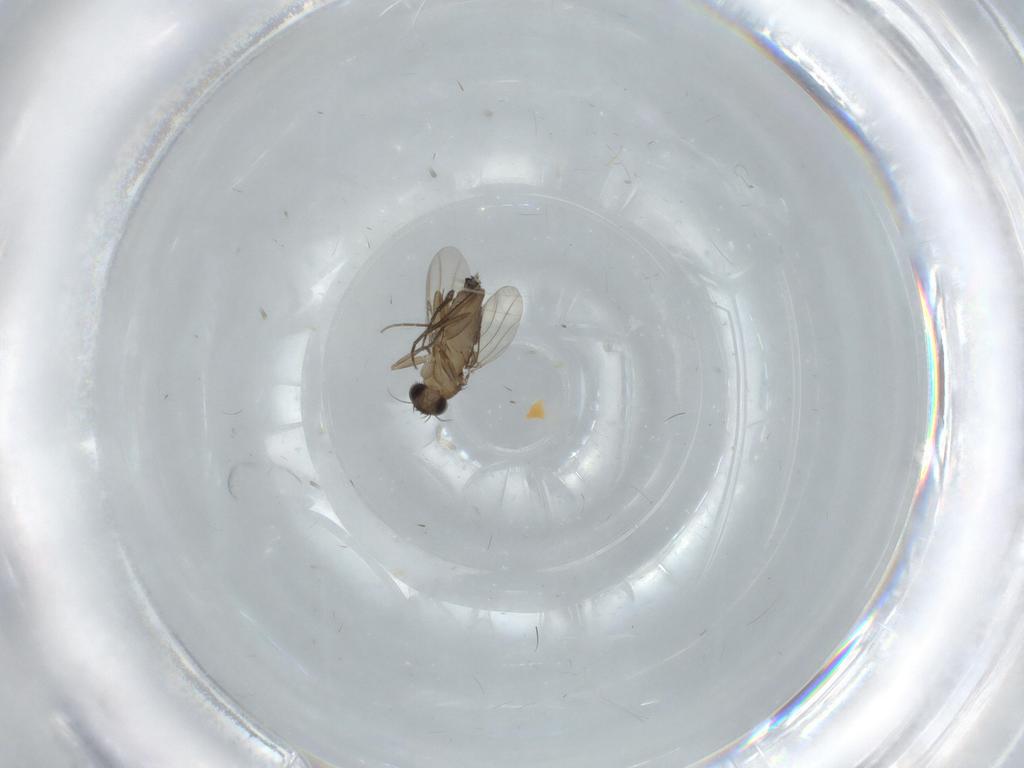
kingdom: Animalia
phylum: Arthropoda
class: Insecta
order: Diptera
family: Phoridae
